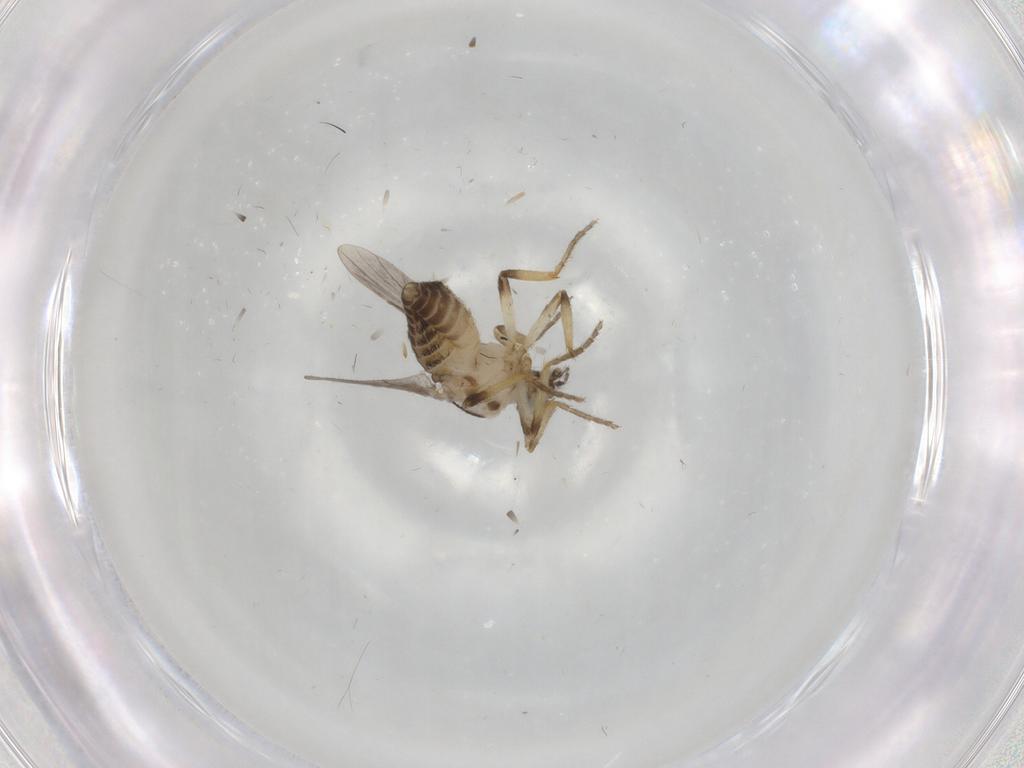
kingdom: Animalia
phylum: Arthropoda
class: Insecta
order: Diptera
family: Ceratopogonidae
